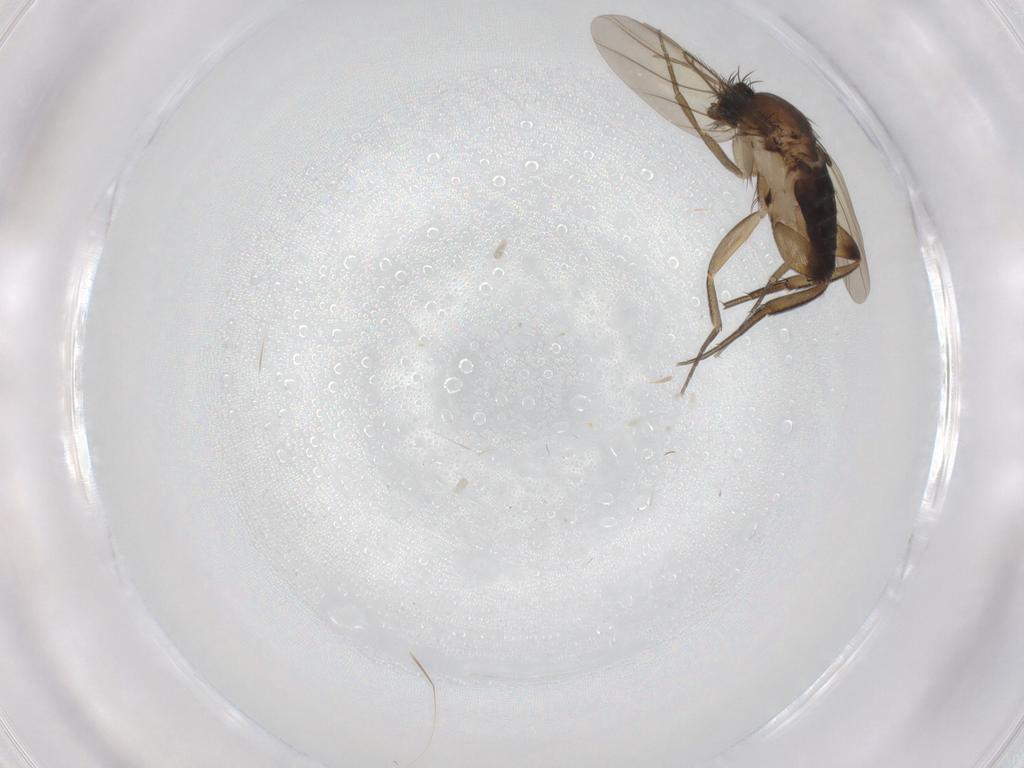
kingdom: Animalia
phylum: Arthropoda
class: Insecta
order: Diptera
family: Phoridae
